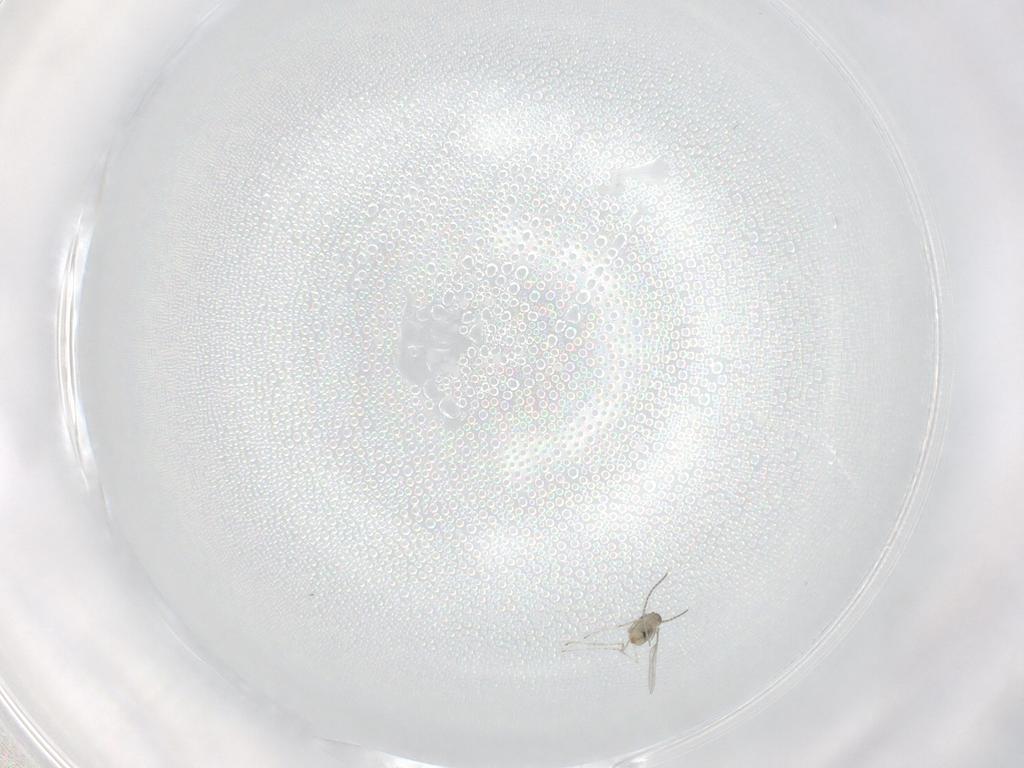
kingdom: Animalia
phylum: Arthropoda
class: Insecta
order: Diptera
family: Cecidomyiidae
